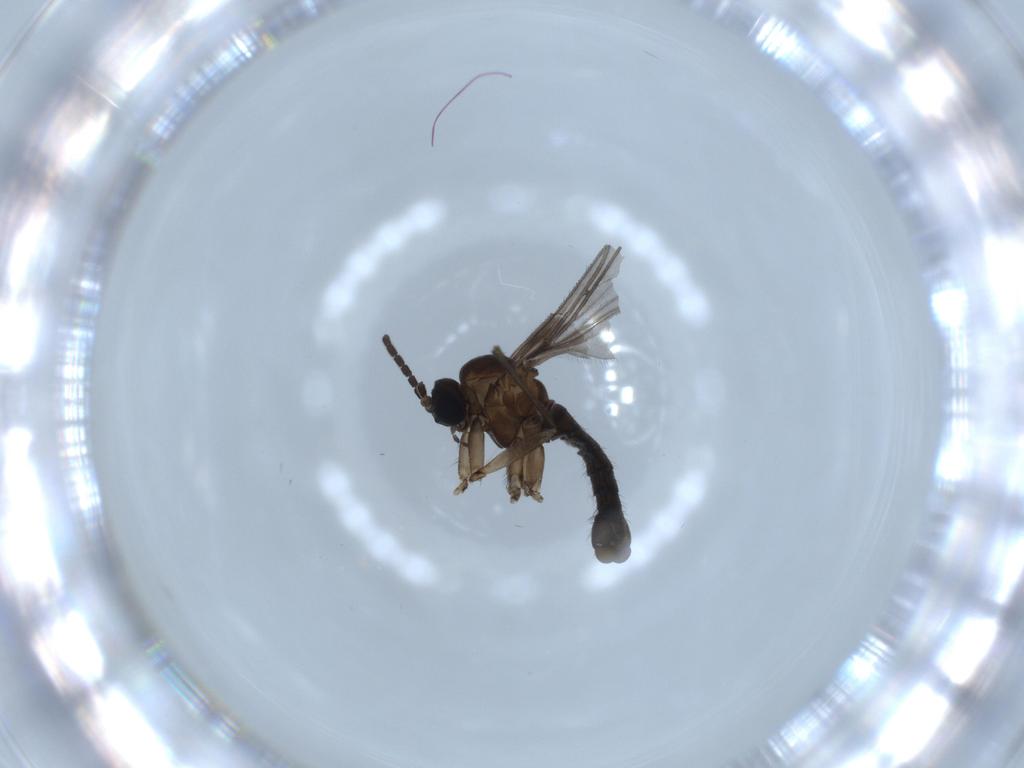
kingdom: Animalia
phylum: Arthropoda
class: Insecta
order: Diptera
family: Sciaridae
